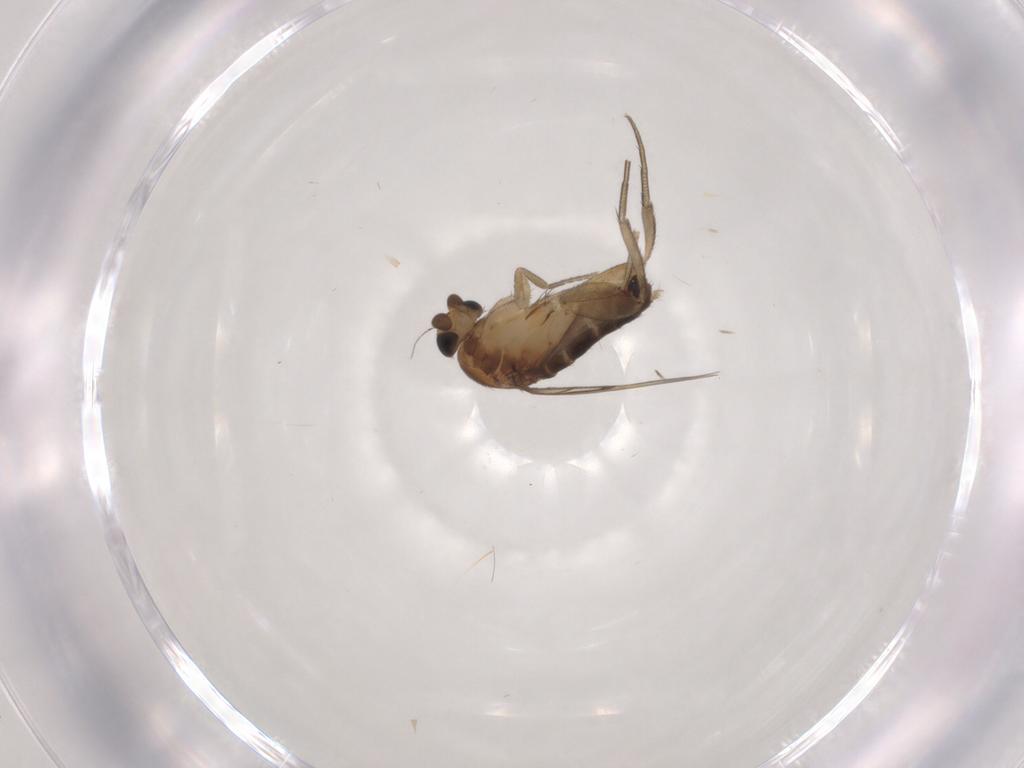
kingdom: Animalia
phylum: Arthropoda
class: Insecta
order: Diptera
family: Phoridae
